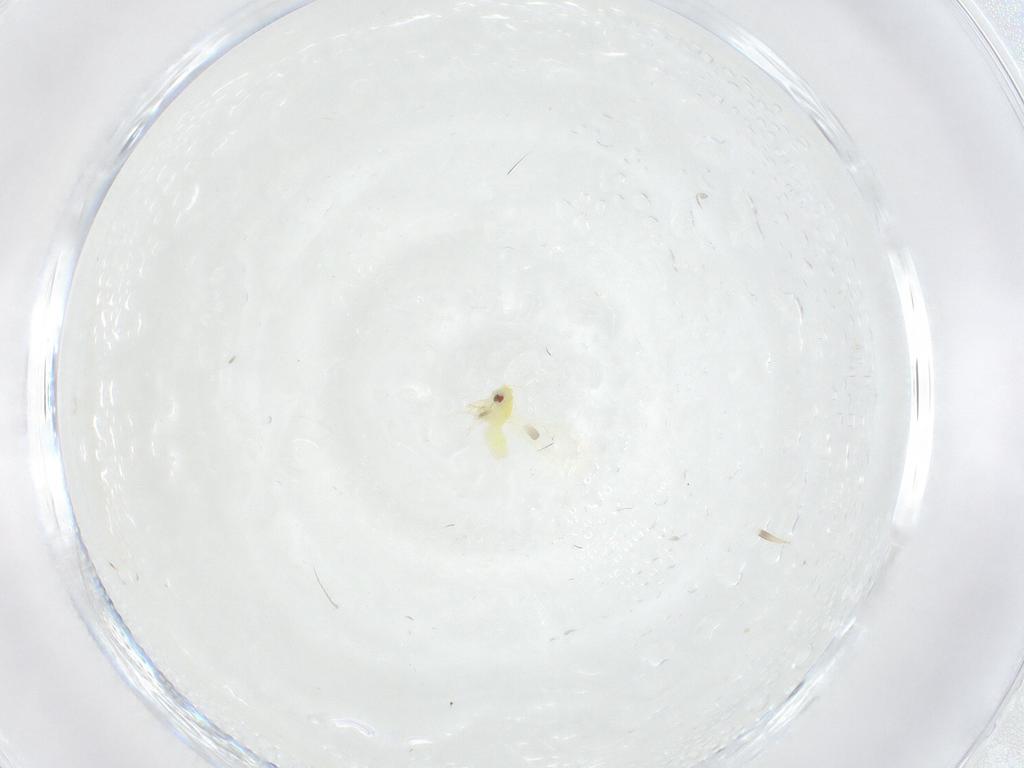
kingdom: Animalia
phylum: Arthropoda
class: Insecta
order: Hemiptera
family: Aleyrodidae
